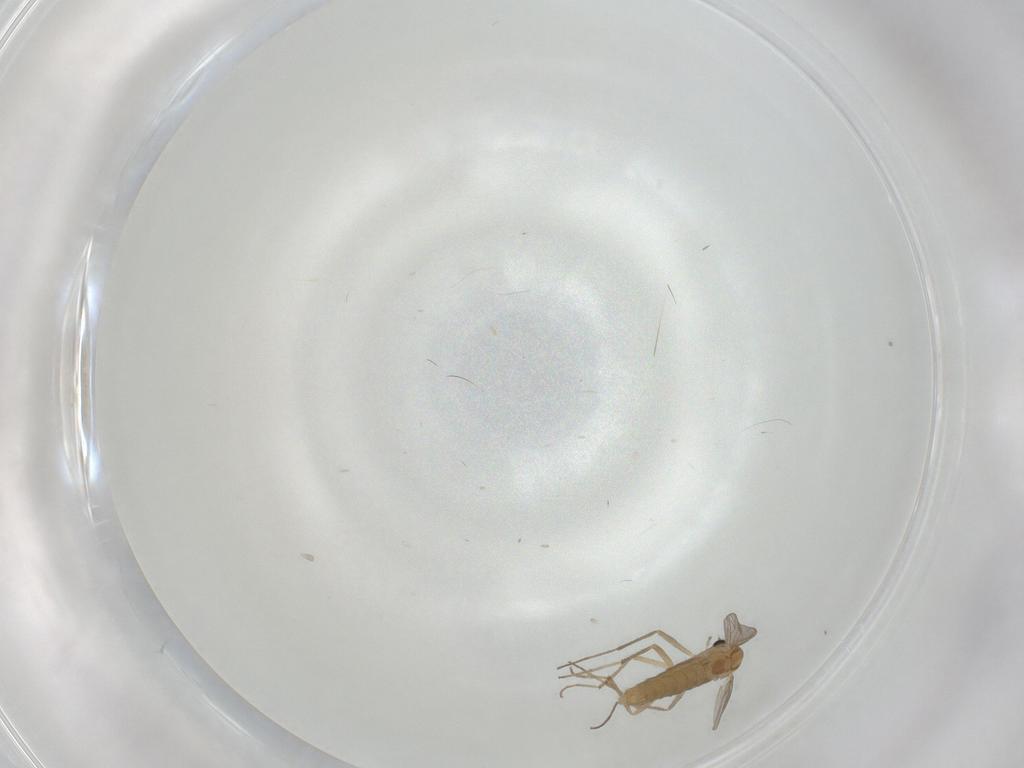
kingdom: Animalia
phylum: Arthropoda
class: Insecta
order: Diptera
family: Chironomidae
